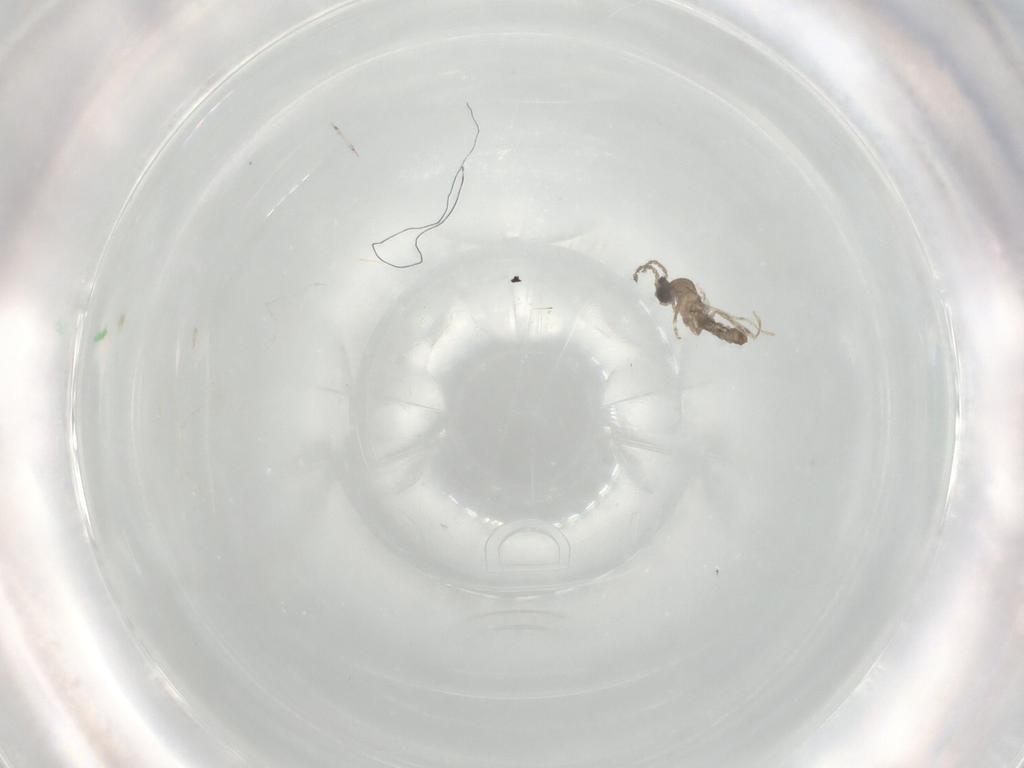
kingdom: Animalia
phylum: Arthropoda
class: Insecta
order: Diptera
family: Cecidomyiidae
